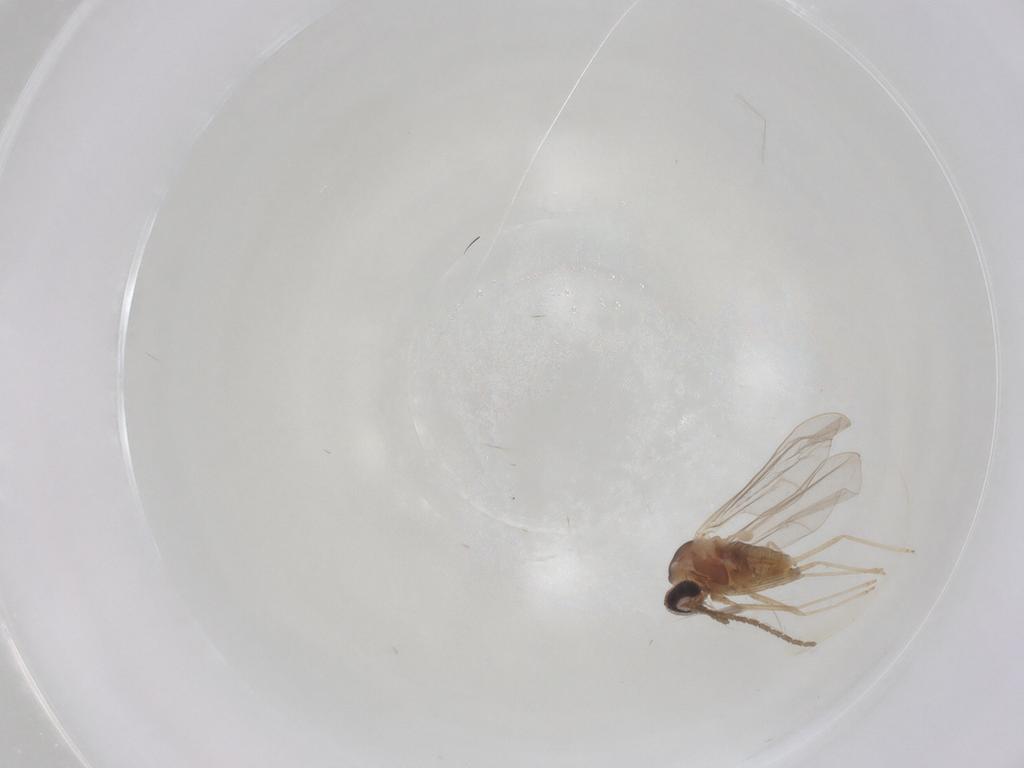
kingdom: Animalia
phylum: Arthropoda
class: Insecta
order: Diptera
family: Cecidomyiidae
